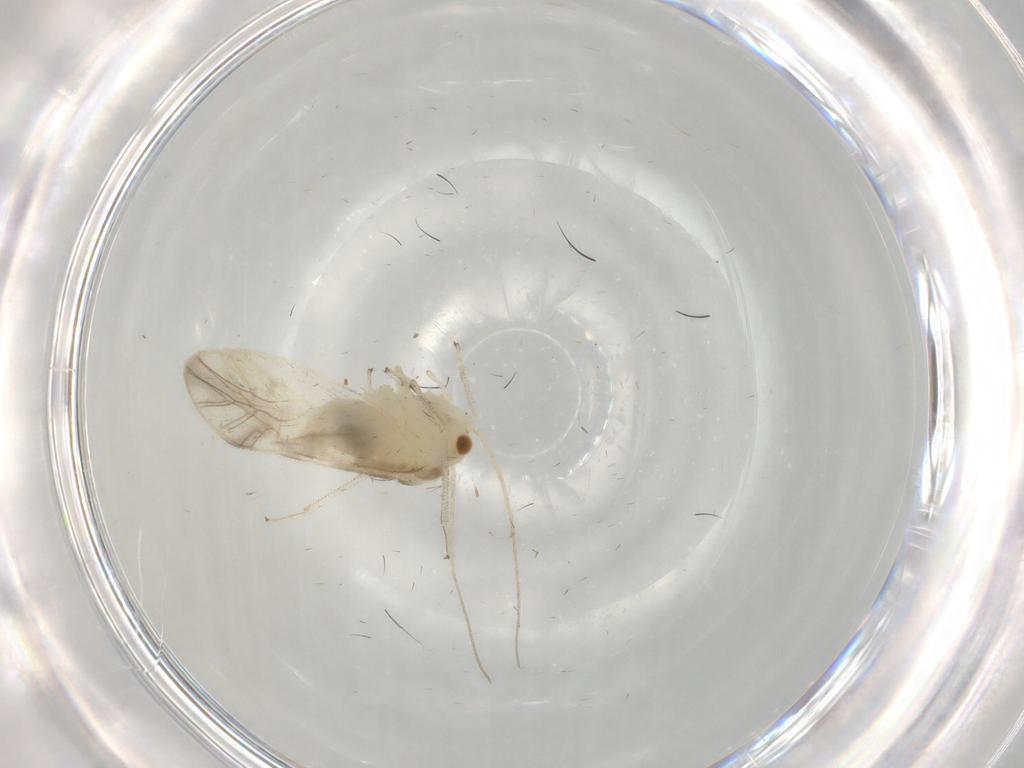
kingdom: Animalia
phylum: Arthropoda
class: Insecta
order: Psocodea
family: Caeciliusidae
